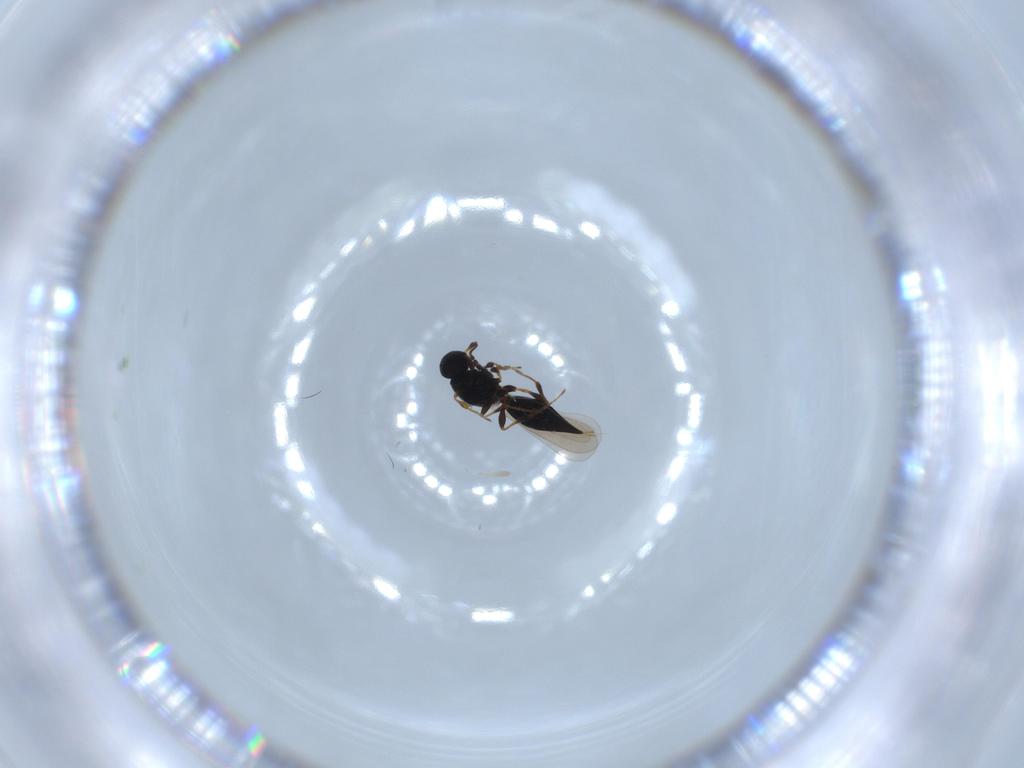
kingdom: Animalia
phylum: Arthropoda
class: Insecta
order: Hymenoptera
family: Platygastridae
